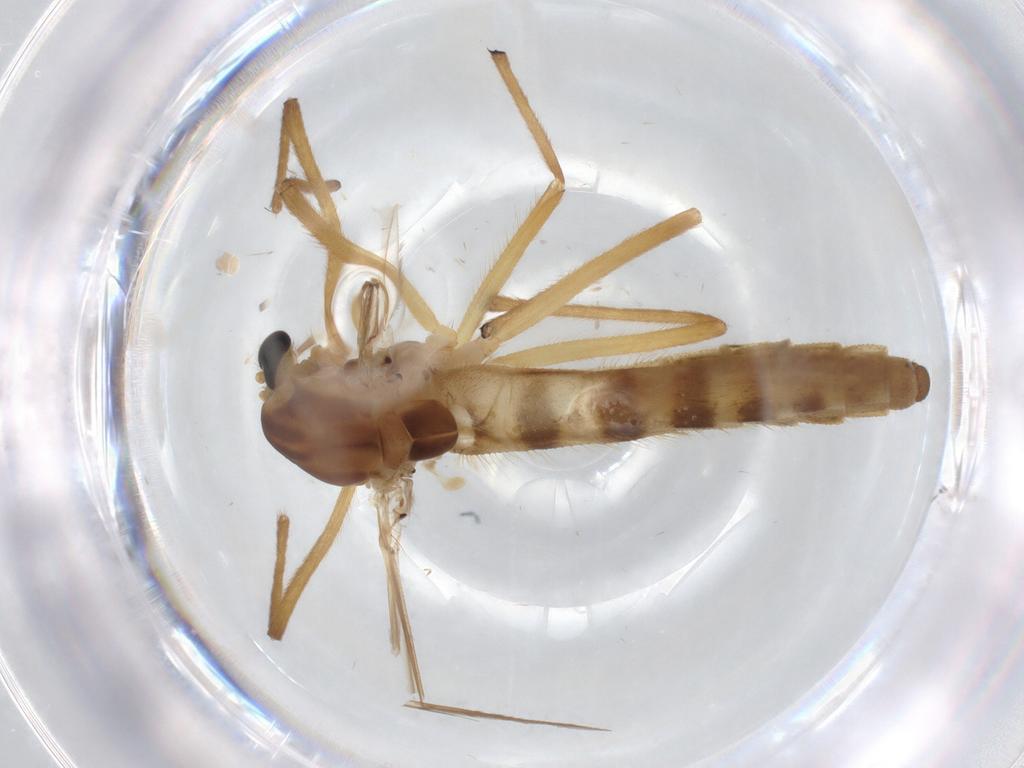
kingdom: Animalia
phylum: Arthropoda
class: Insecta
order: Diptera
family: Chironomidae
